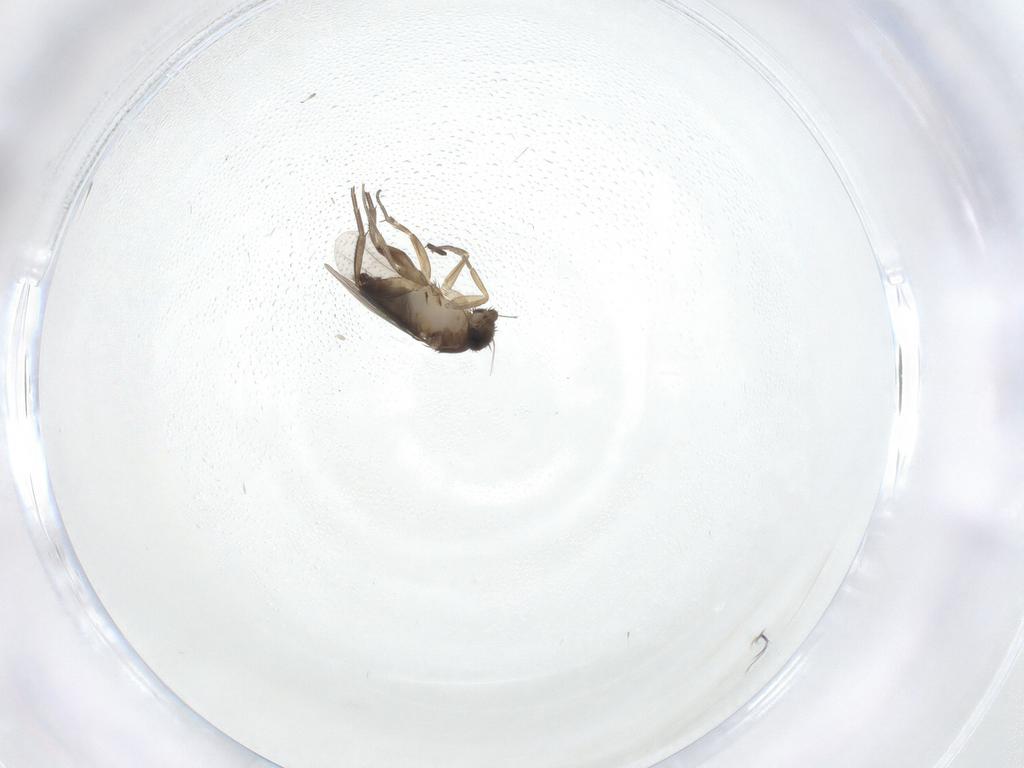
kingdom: Animalia
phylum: Arthropoda
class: Insecta
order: Diptera
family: Phoridae
